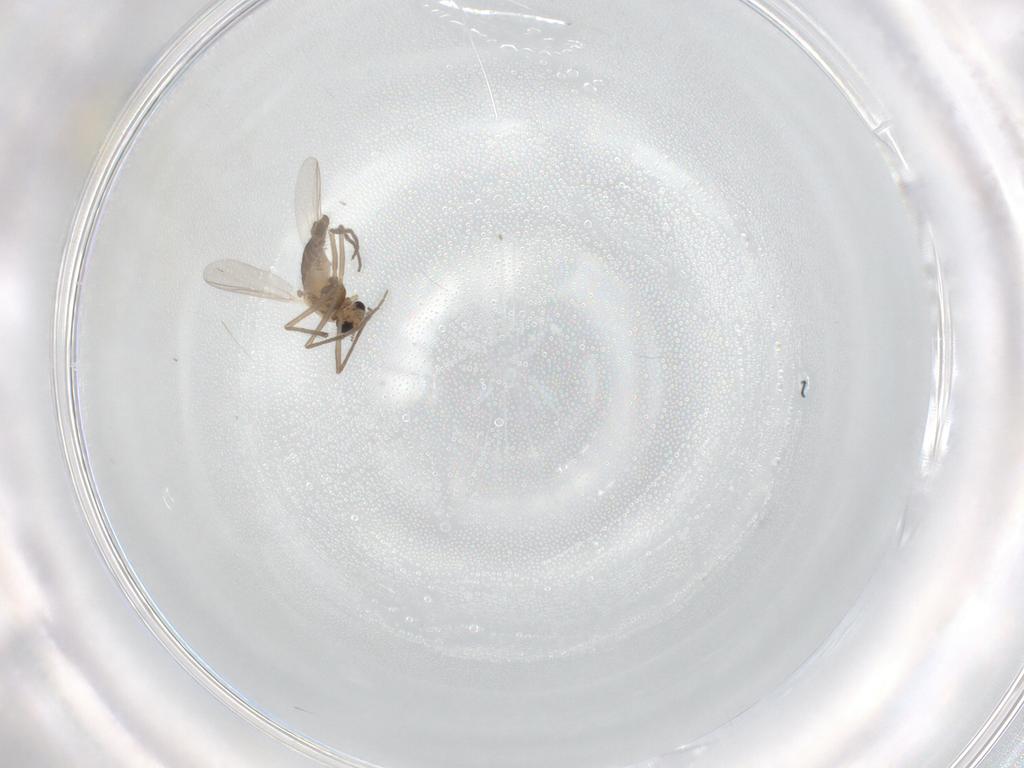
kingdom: Animalia
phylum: Arthropoda
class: Insecta
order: Diptera
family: Chironomidae
